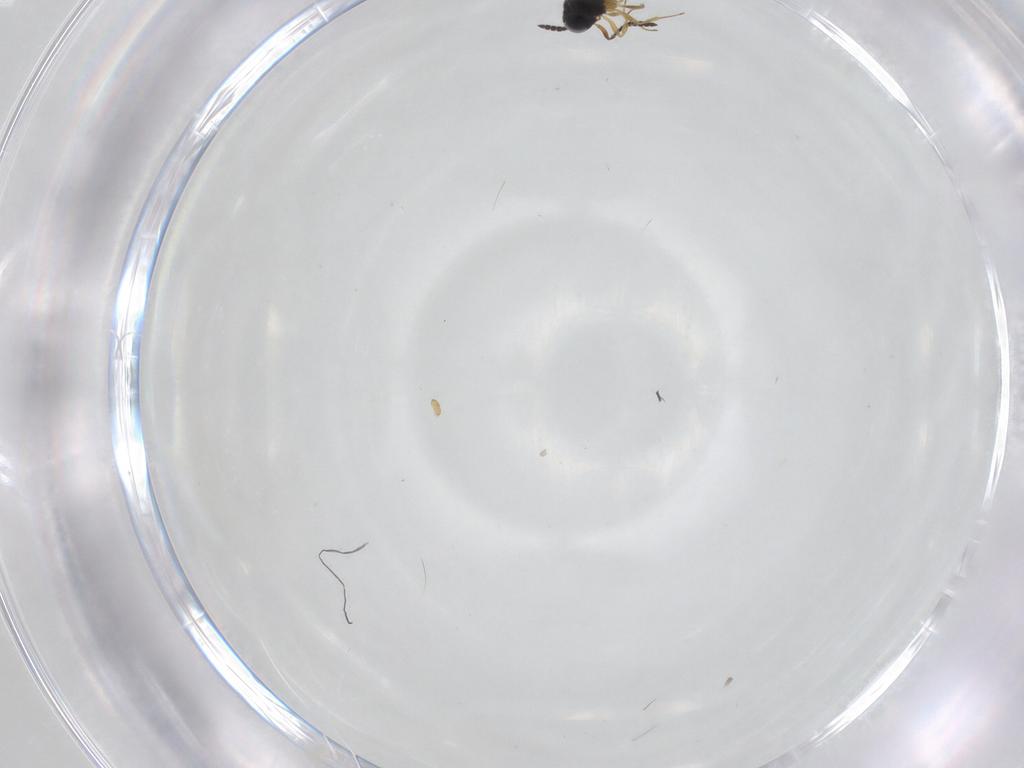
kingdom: Animalia
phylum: Arthropoda
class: Insecta
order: Hymenoptera
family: Scelionidae
